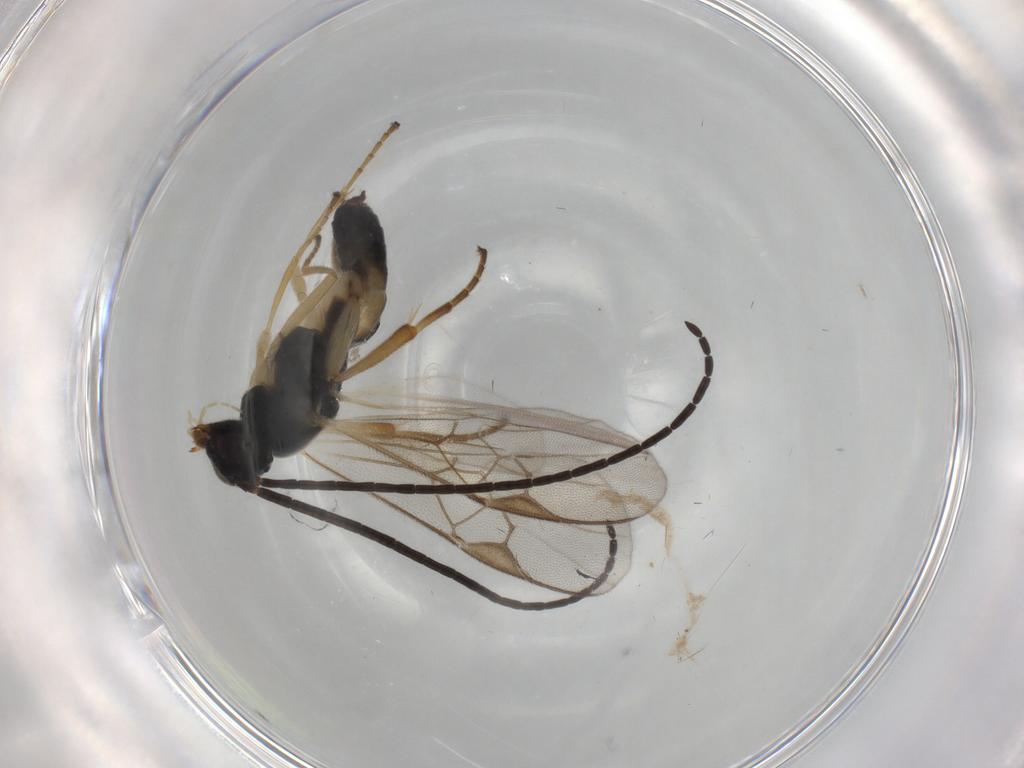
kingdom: Animalia
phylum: Arthropoda
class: Insecta
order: Hymenoptera
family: Braconidae
